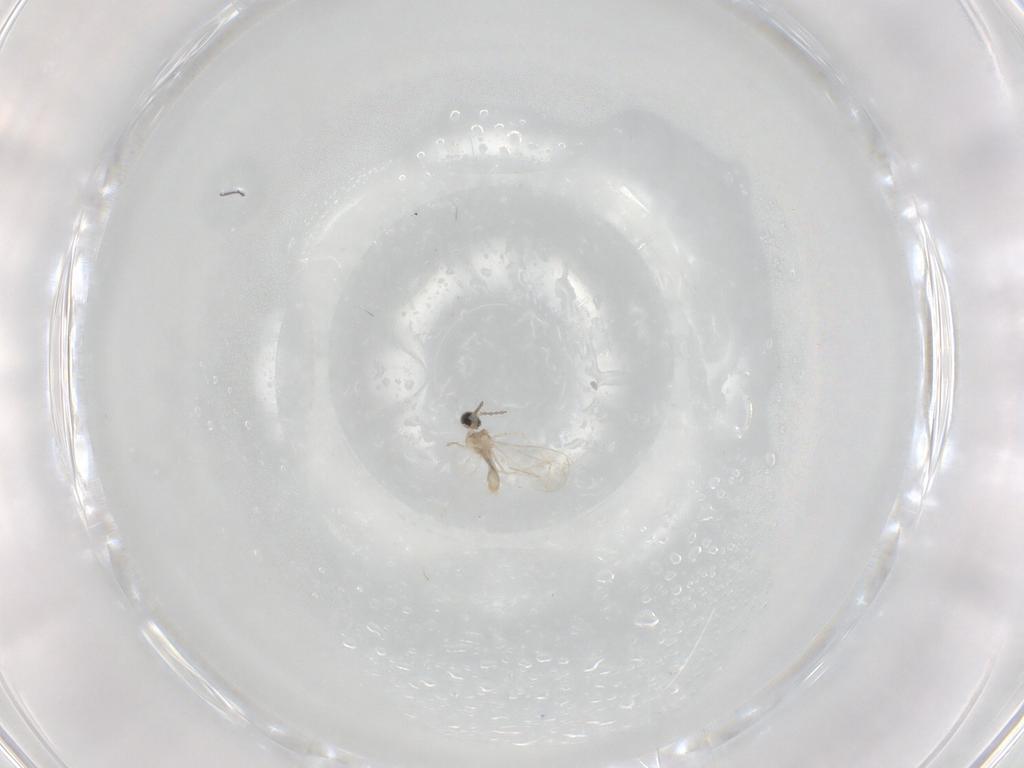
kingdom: Animalia
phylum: Arthropoda
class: Insecta
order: Diptera
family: Cecidomyiidae
